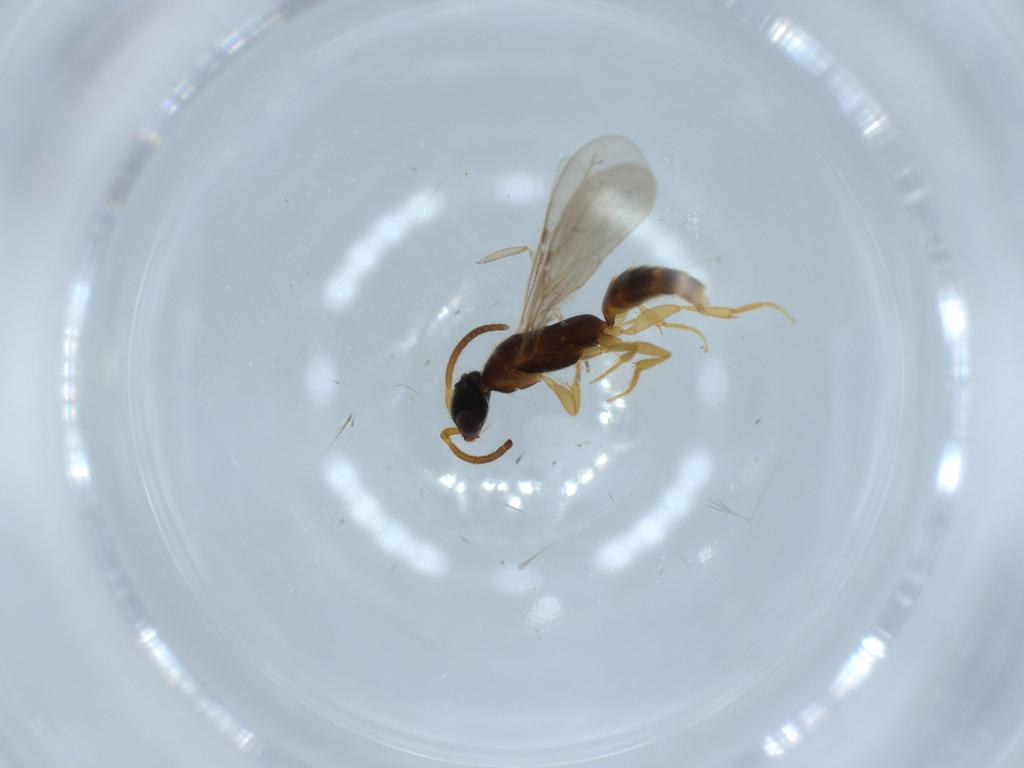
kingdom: Animalia
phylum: Arthropoda
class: Insecta
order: Hymenoptera
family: Bethylidae
